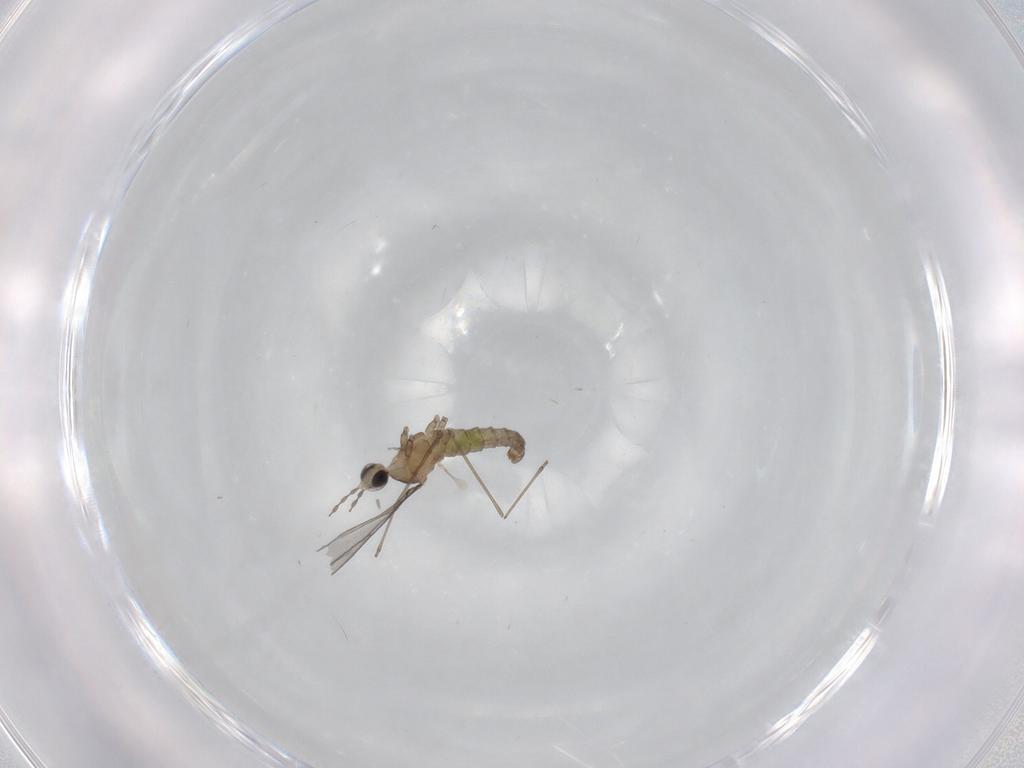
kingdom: Animalia
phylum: Arthropoda
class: Insecta
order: Diptera
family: Cecidomyiidae
